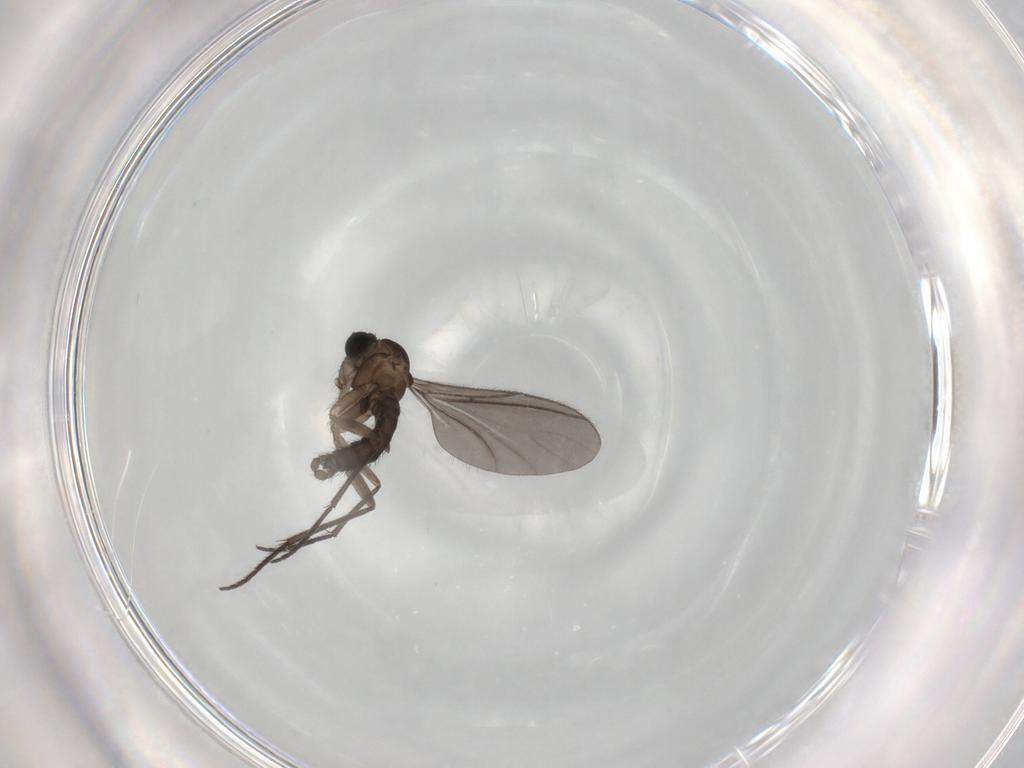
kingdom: Animalia
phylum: Arthropoda
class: Insecta
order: Diptera
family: Sciaridae
